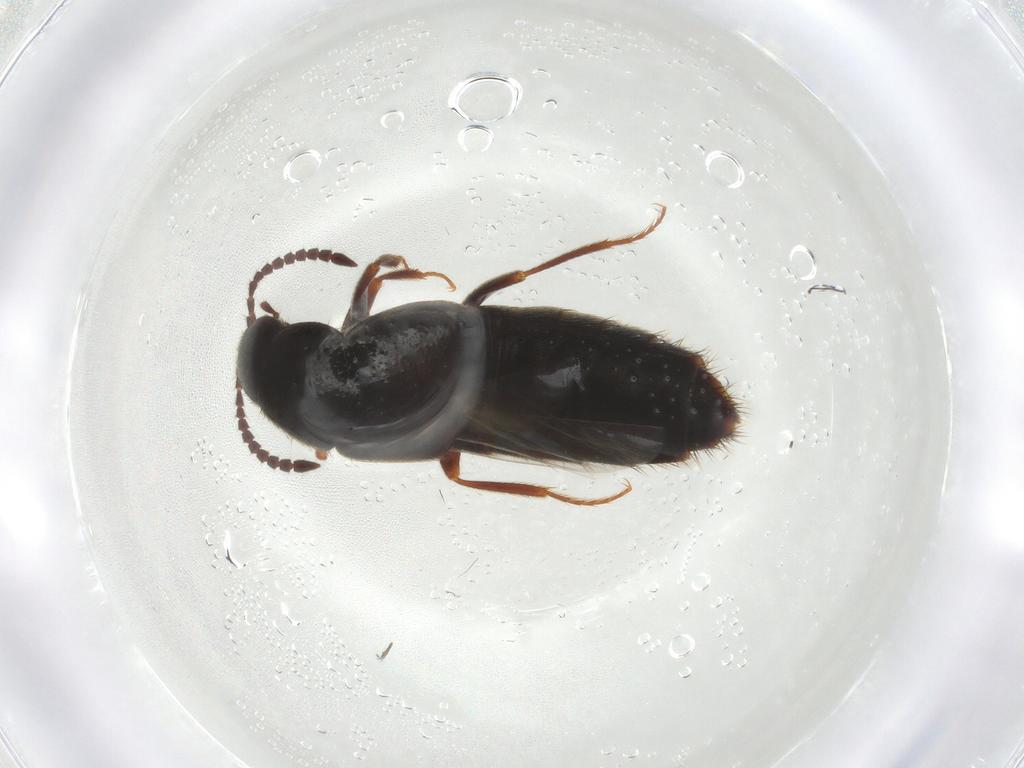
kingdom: Animalia
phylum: Arthropoda
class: Insecta
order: Coleoptera
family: Staphylinidae
